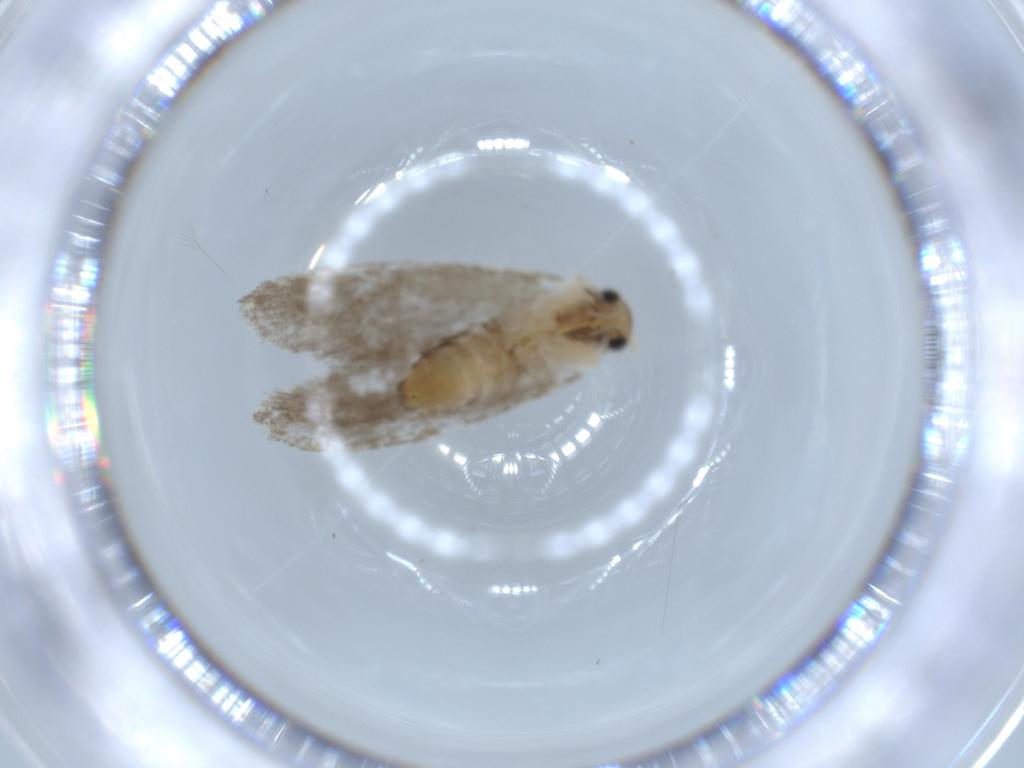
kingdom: Animalia
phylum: Arthropoda
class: Insecta
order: Lepidoptera
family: Tineidae
